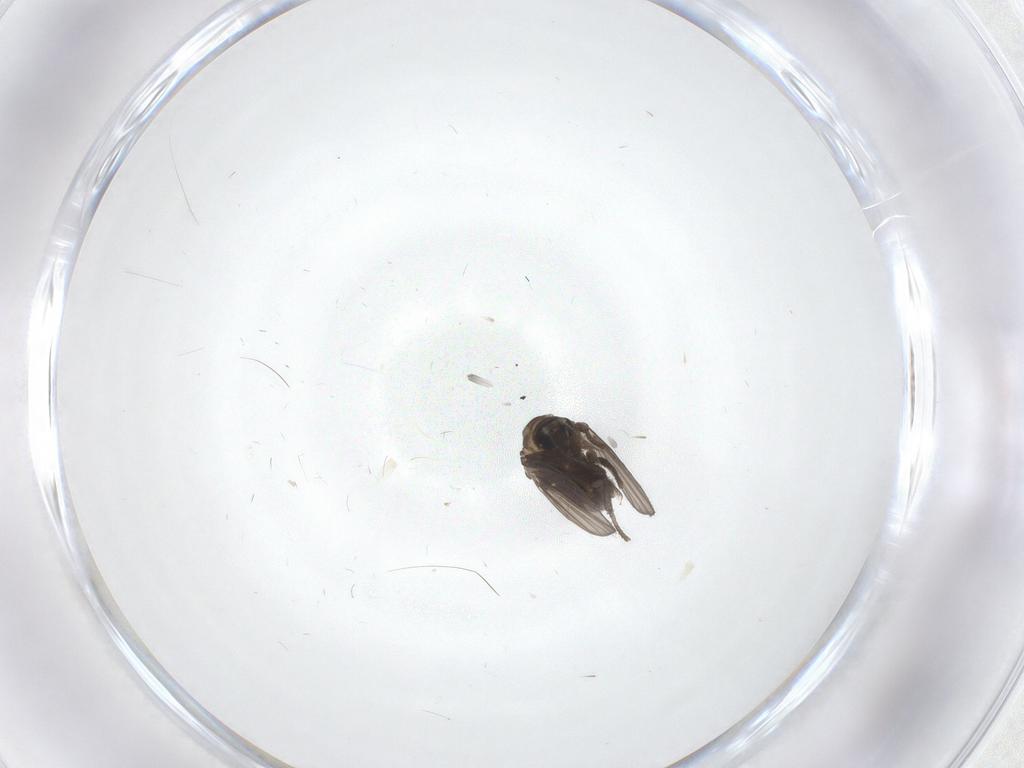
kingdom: Animalia
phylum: Arthropoda
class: Insecta
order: Diptera
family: Psychodidae
